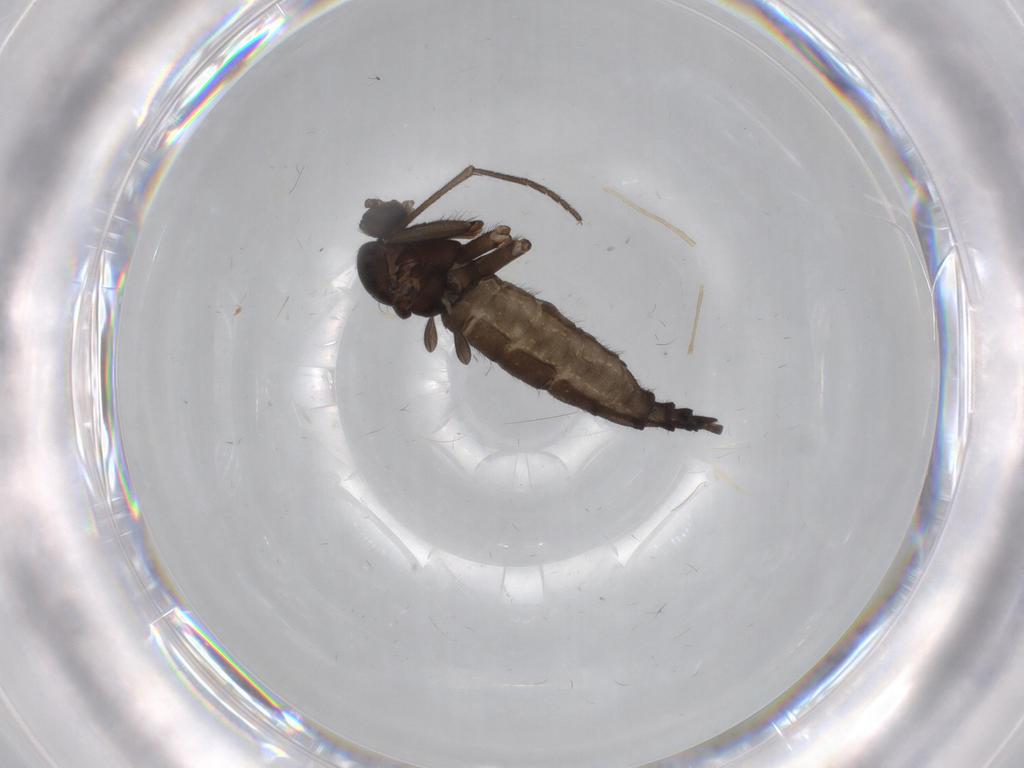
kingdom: Animalia
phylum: Arthropoda
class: Insecta
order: Diptera
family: Sciaridae
